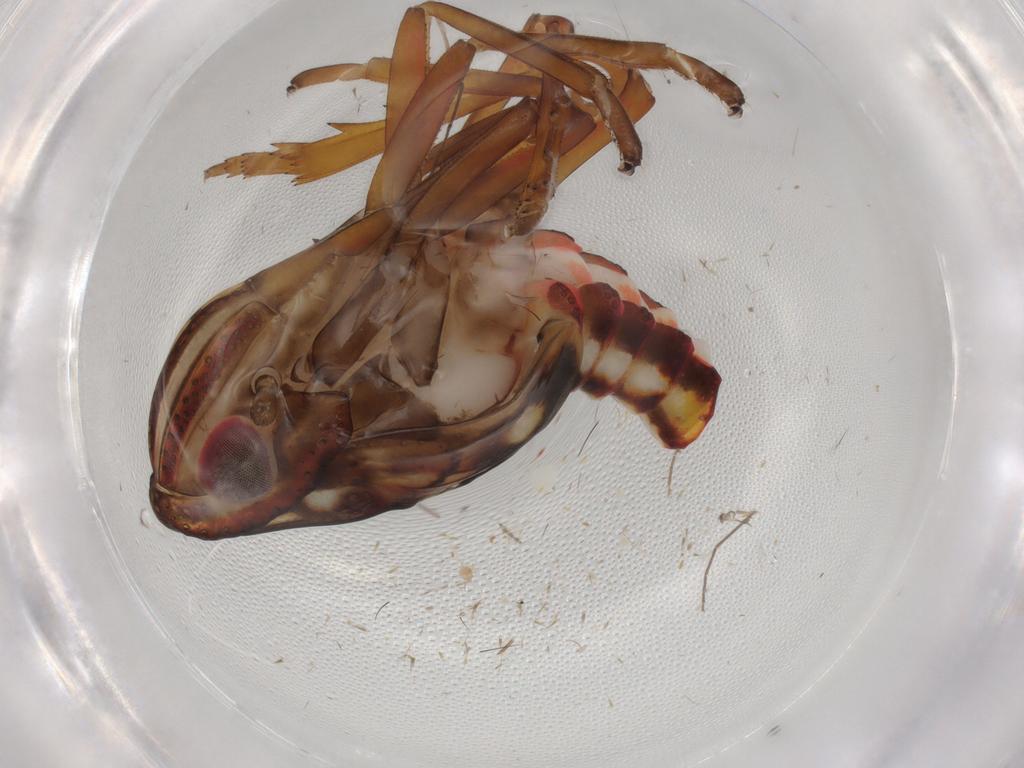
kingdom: Animalia
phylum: Arthropoda
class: Insecta
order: Hemiptera
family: Nogodinidae
